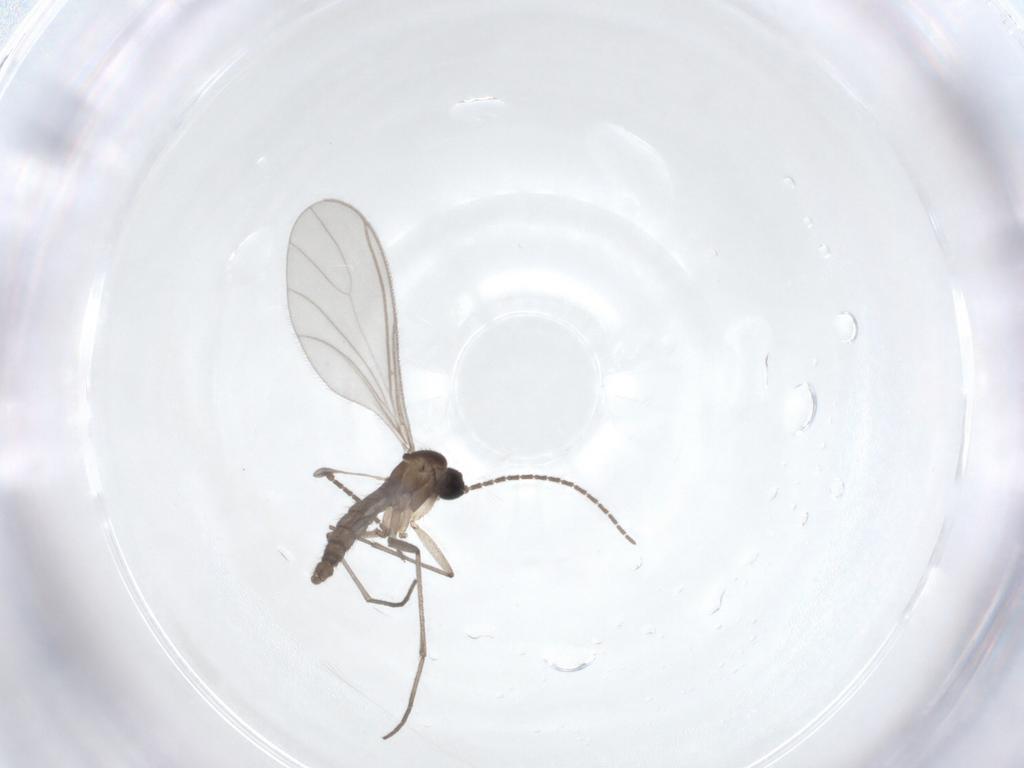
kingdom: Animalia
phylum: Arthropoda
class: Insecta
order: Diptera
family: Sciaridae
